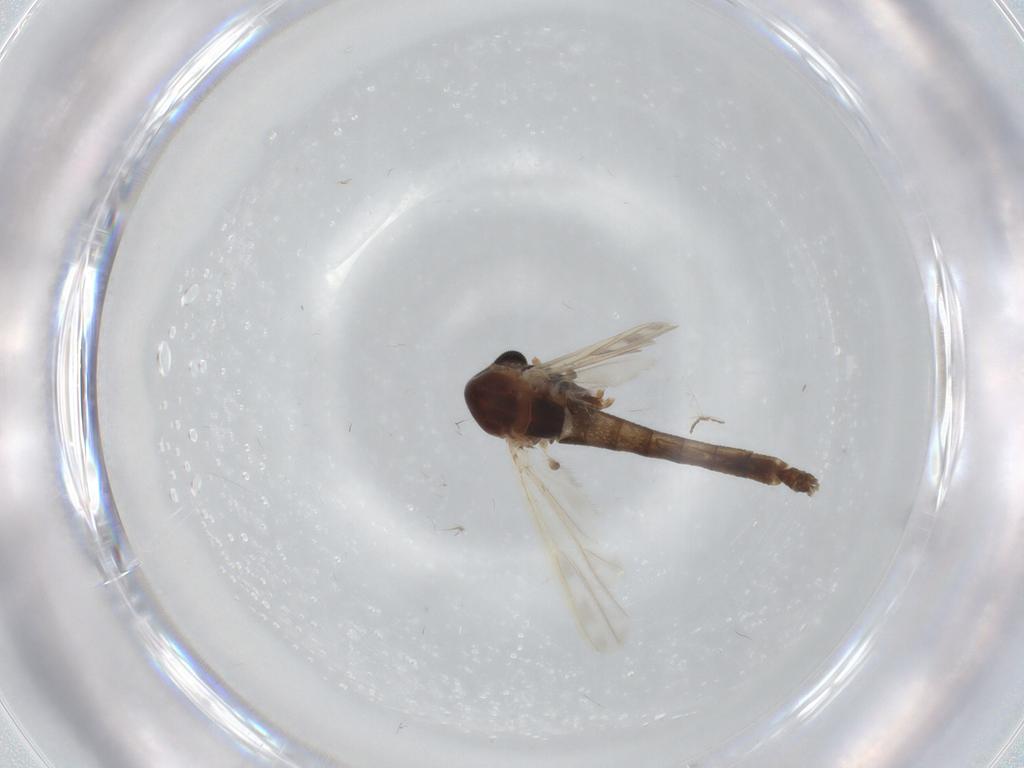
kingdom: Animalia
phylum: Arthropoda
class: Insecta
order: Diptera
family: Chironomidae
